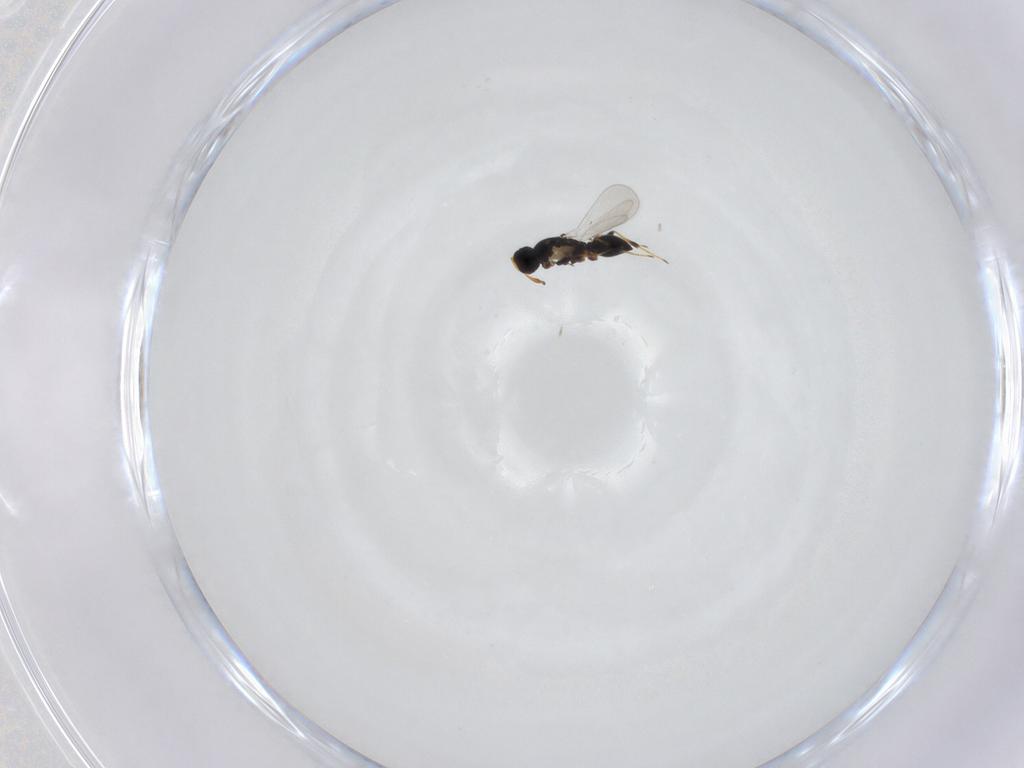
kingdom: Animalia
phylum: Arthropoda
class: Insecta
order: Hymenoptera
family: Platygastridae
